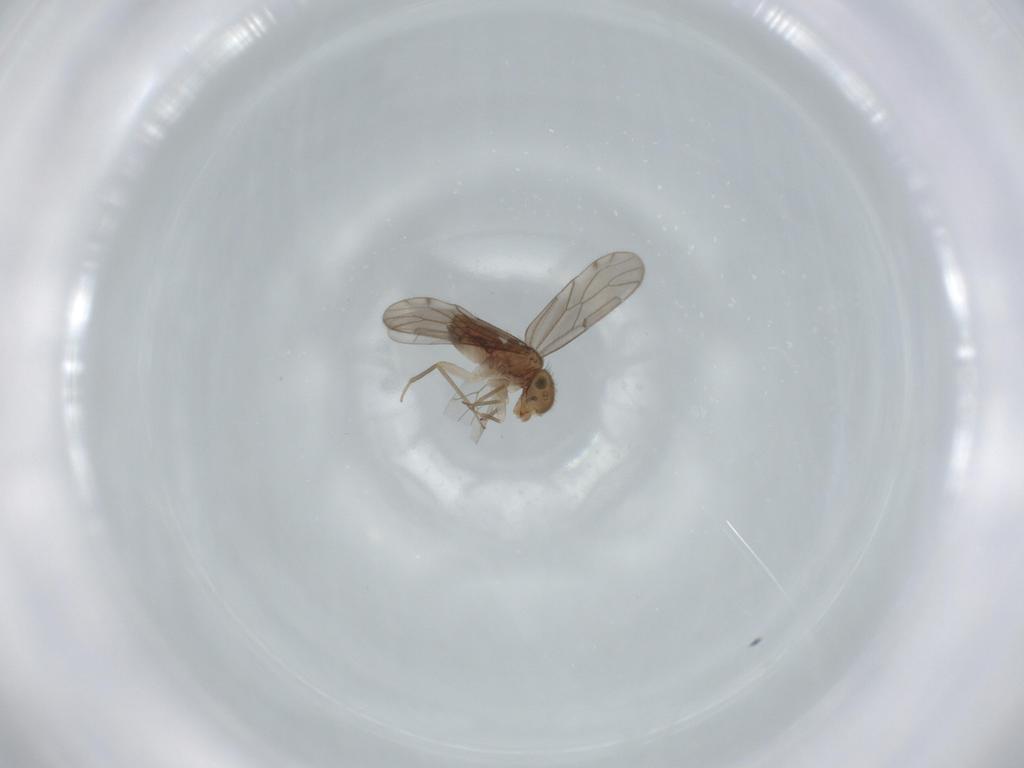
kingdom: Animalia
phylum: Arthropoda
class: Insecta
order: Psocodea
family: Ectopsocidae
